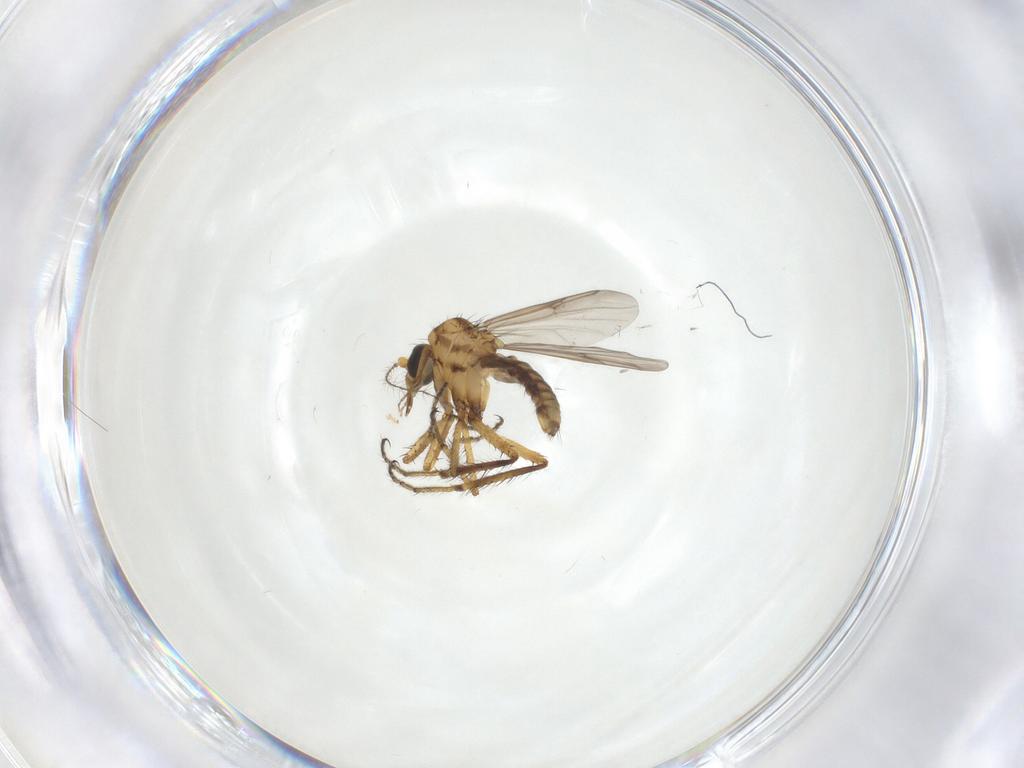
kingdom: Animalia
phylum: Arthropoda
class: Insecta
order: Diptera
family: Ceratopogonidae
